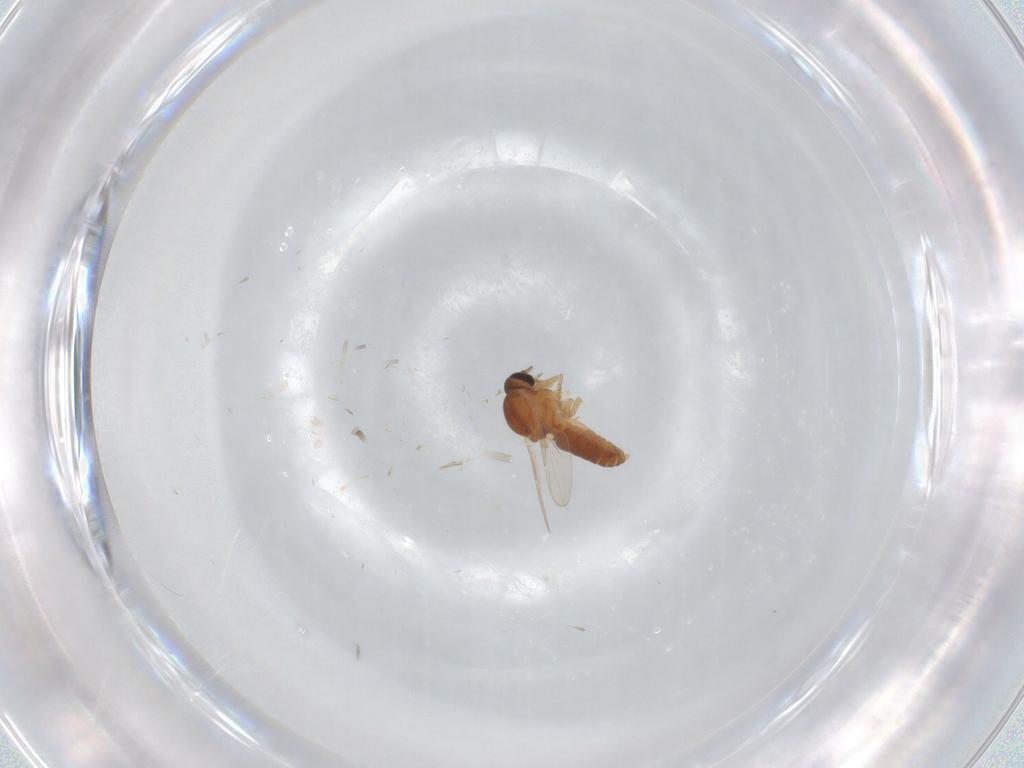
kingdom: Animalia
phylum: Arthropoda
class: Insecta
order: Diptera
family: Ceratopogonidae
